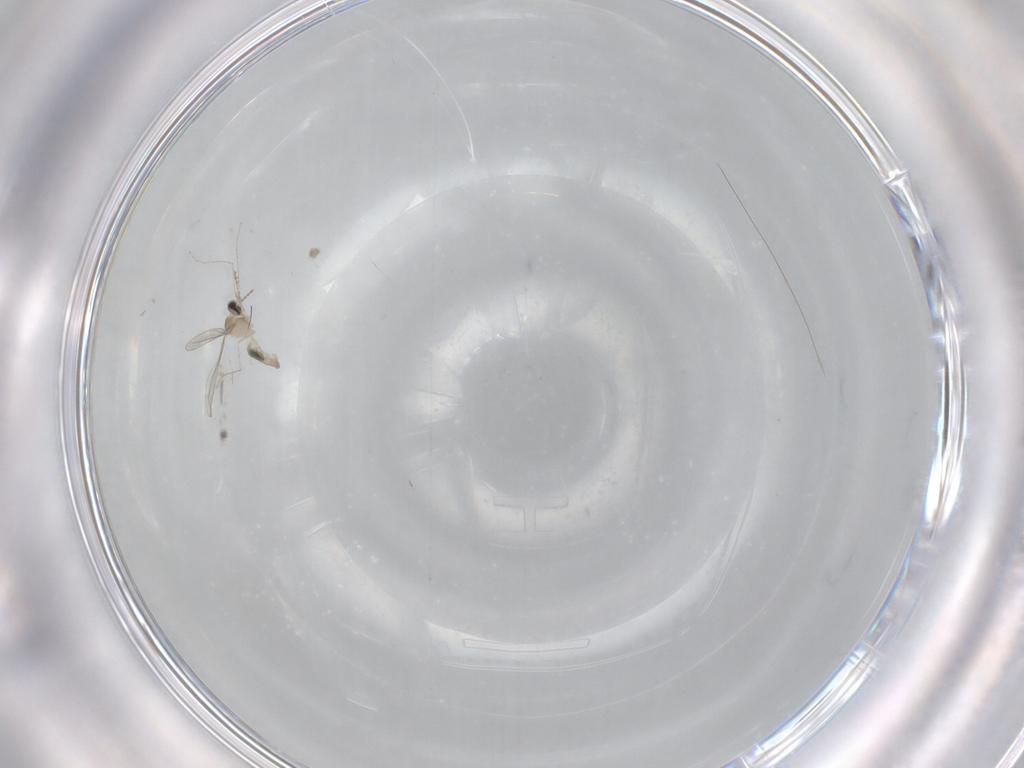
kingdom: Animalia
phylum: Arthropoda
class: Insecta
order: Diptera
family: Cecidomyiidae
